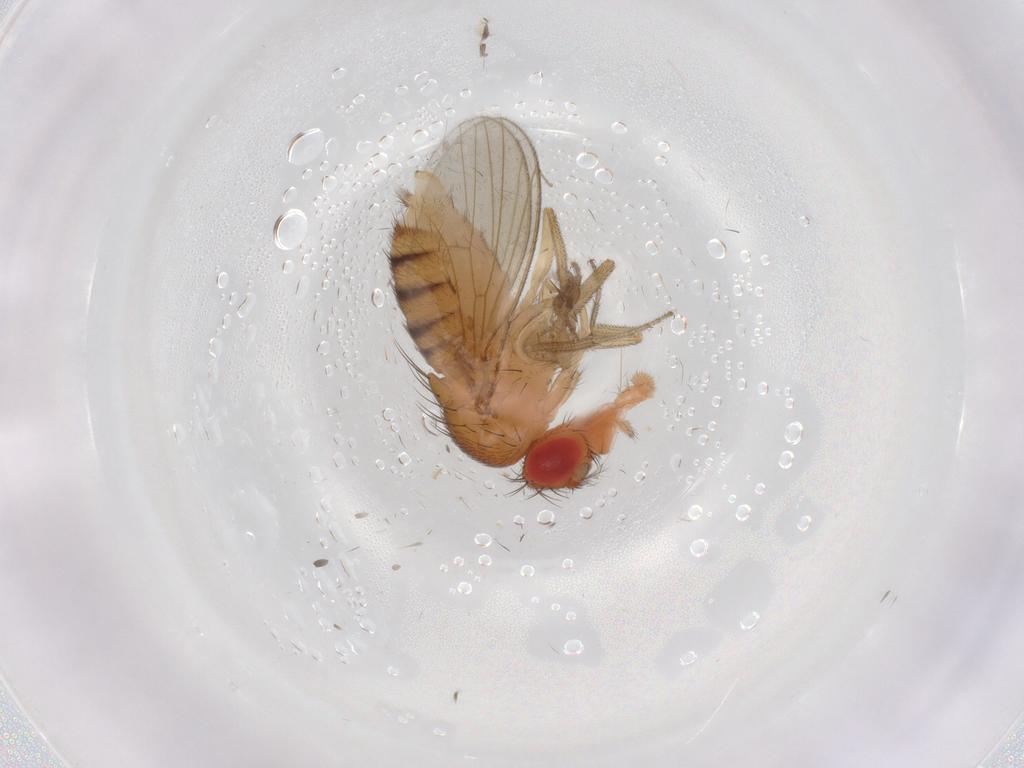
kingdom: Animalia
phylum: Arthropoda
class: Insecta
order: Diptera
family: Drosophilidae
